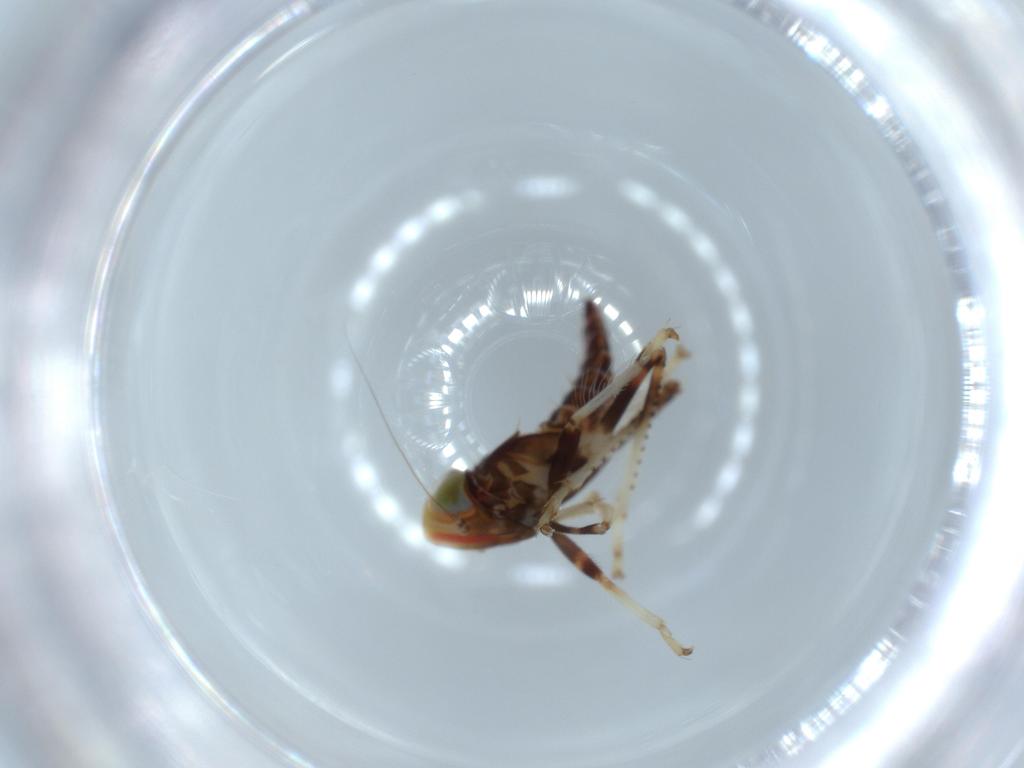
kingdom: Animalia
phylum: Arthropoda
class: Insecta
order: Hemiptera
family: Cicadellidae
